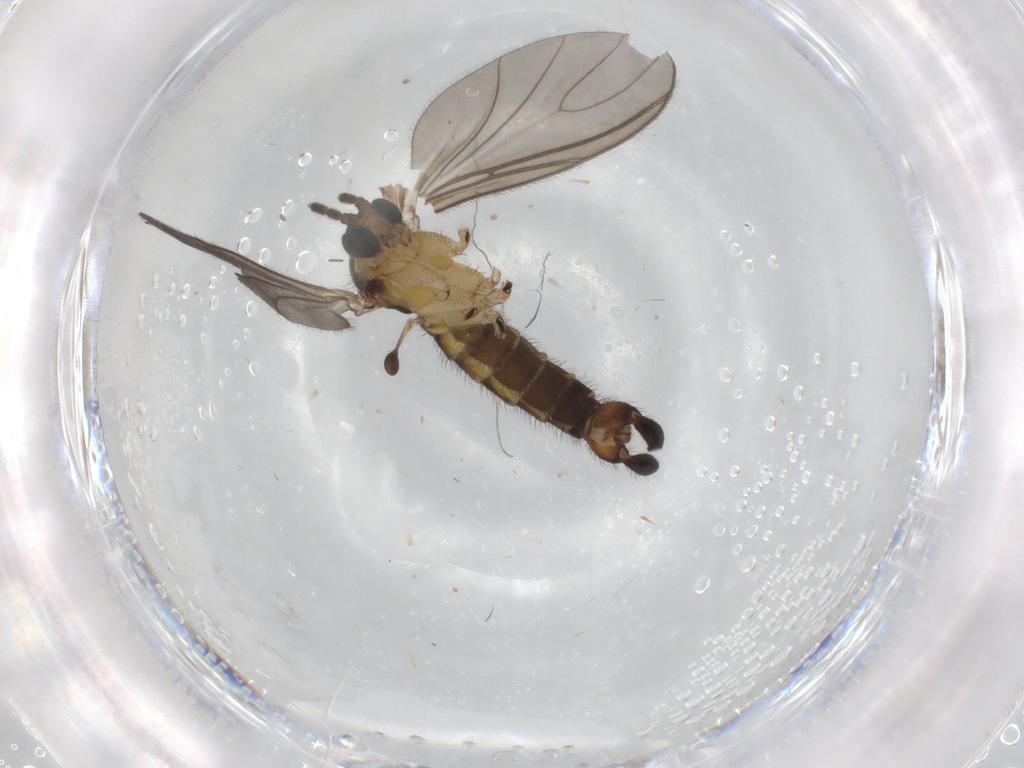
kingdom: Animalia
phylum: Arthropoda
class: Insecta
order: Diptera
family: Sciaridae
